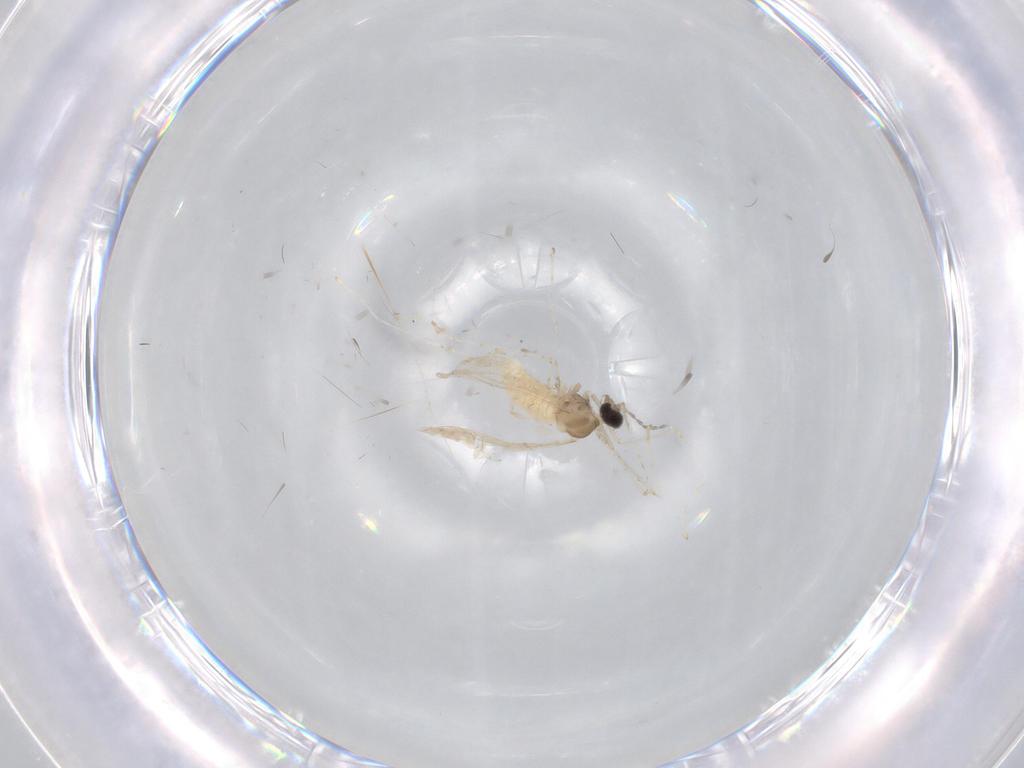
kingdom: Animalia
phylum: Arthropoda
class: Insecta
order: Diptera
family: Cecidomyiidae
